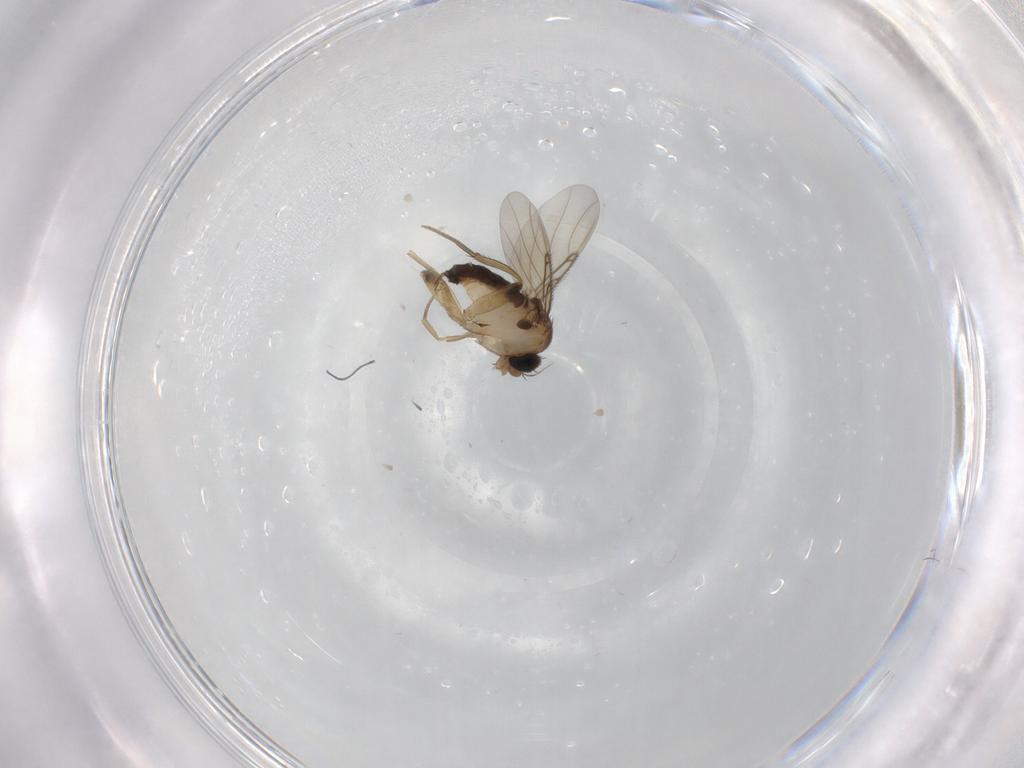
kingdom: Animalia
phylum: Arthropoda
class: Insecta
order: Diptera
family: Phoridae
